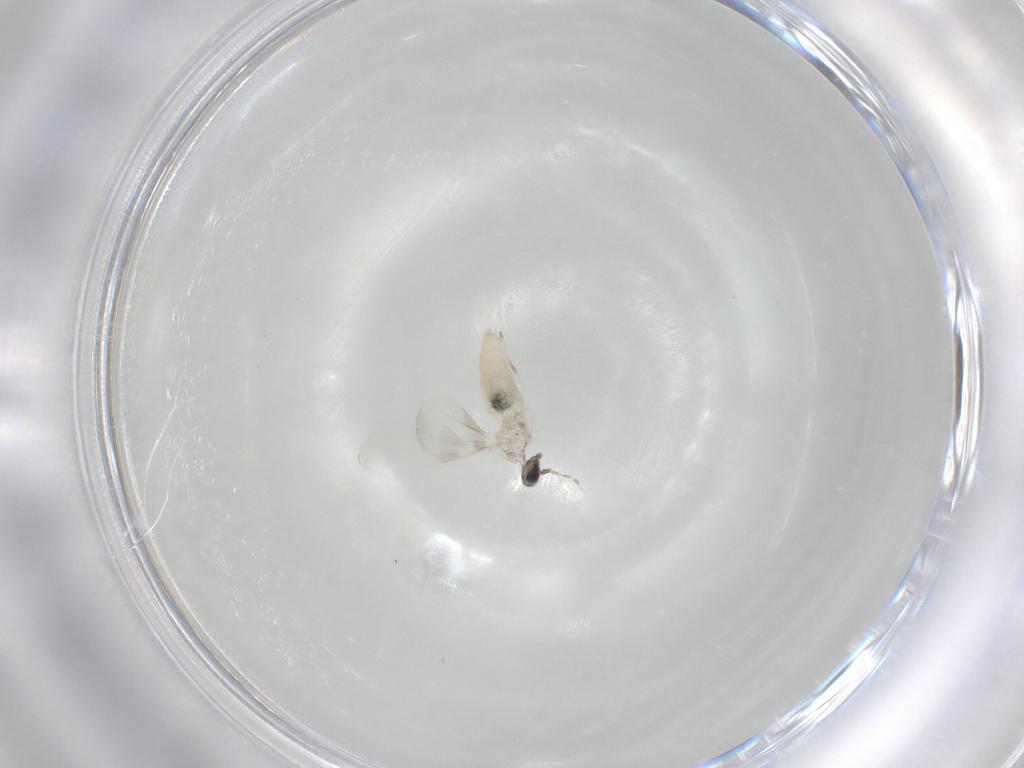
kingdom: Animalia
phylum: Arthropoda
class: Insecta
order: Diptera
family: Cecidomyiidae
